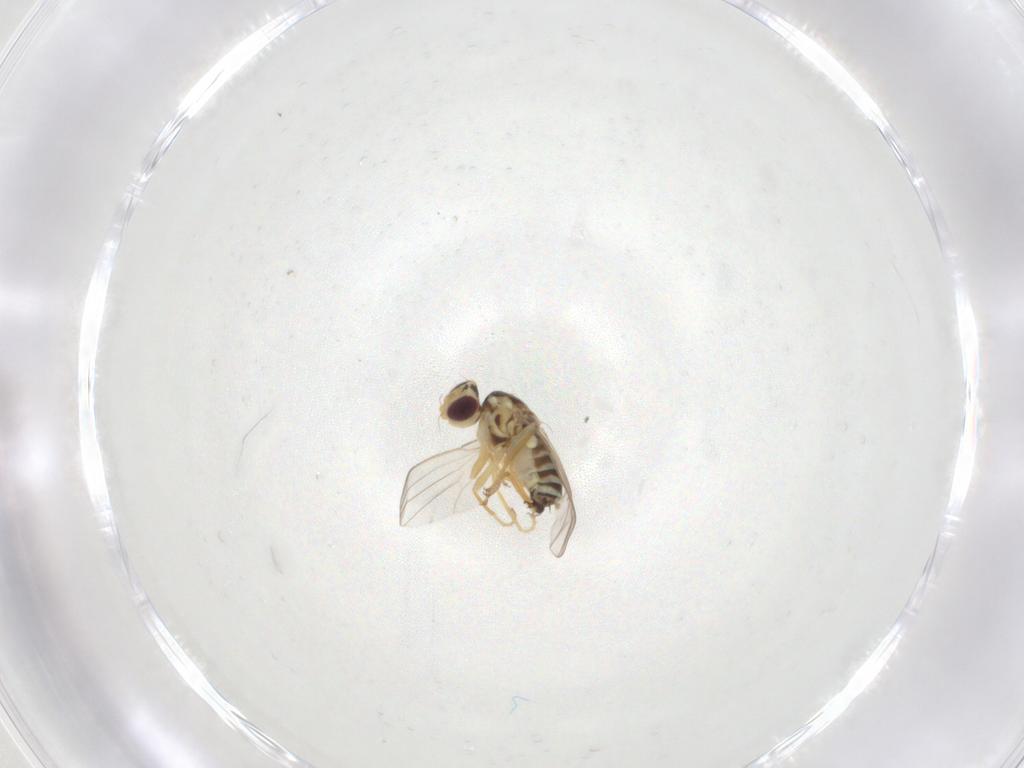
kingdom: Animalia
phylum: Arthropoda
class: Insecta
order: Diptera
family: Chyromyidae
